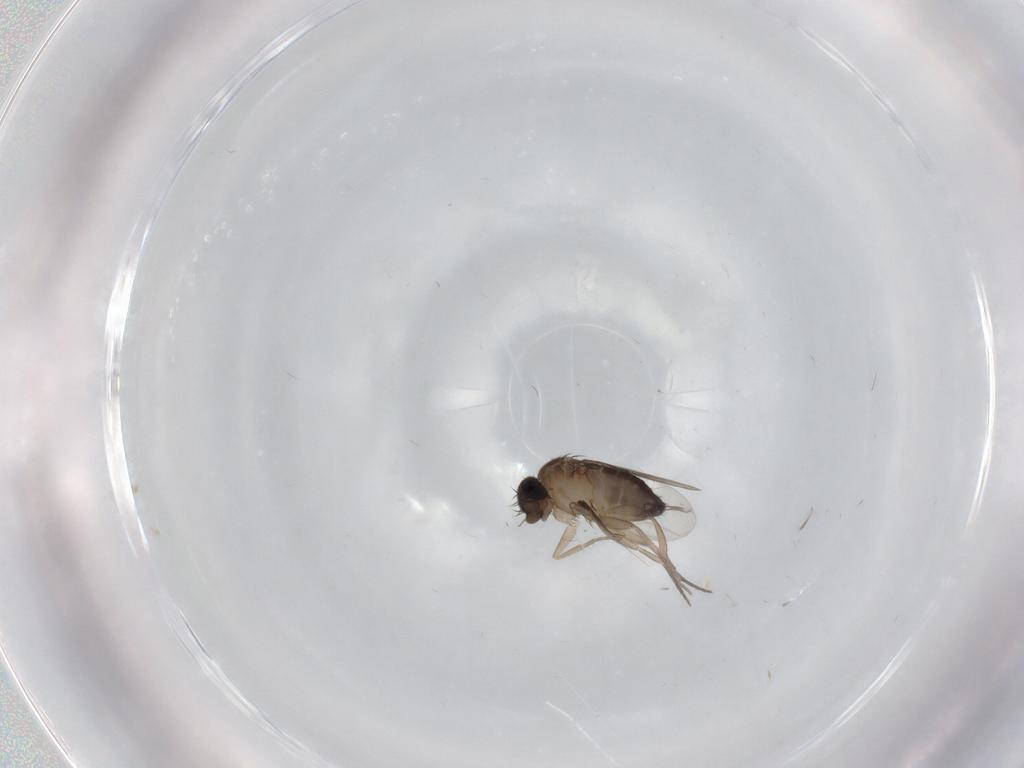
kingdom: Animalia
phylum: Arthropoda
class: Insecta
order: Diptera
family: Phoridae
